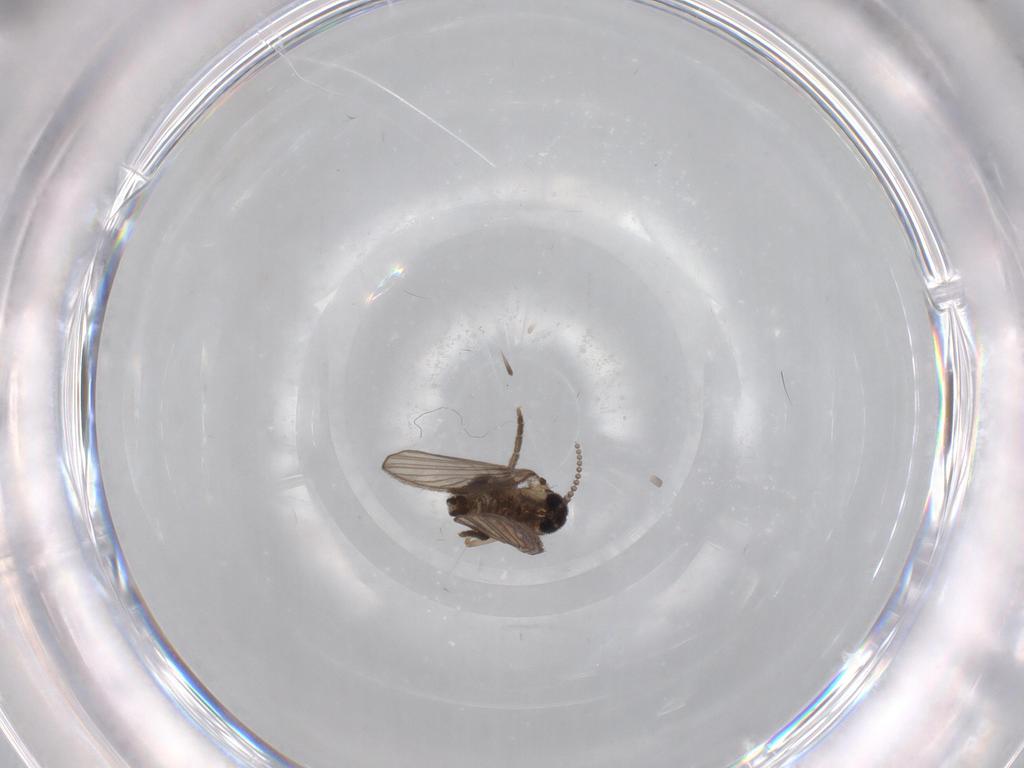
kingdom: Animalia
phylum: Arthropoda
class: Insecta
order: Diptera
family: Psychodidae
